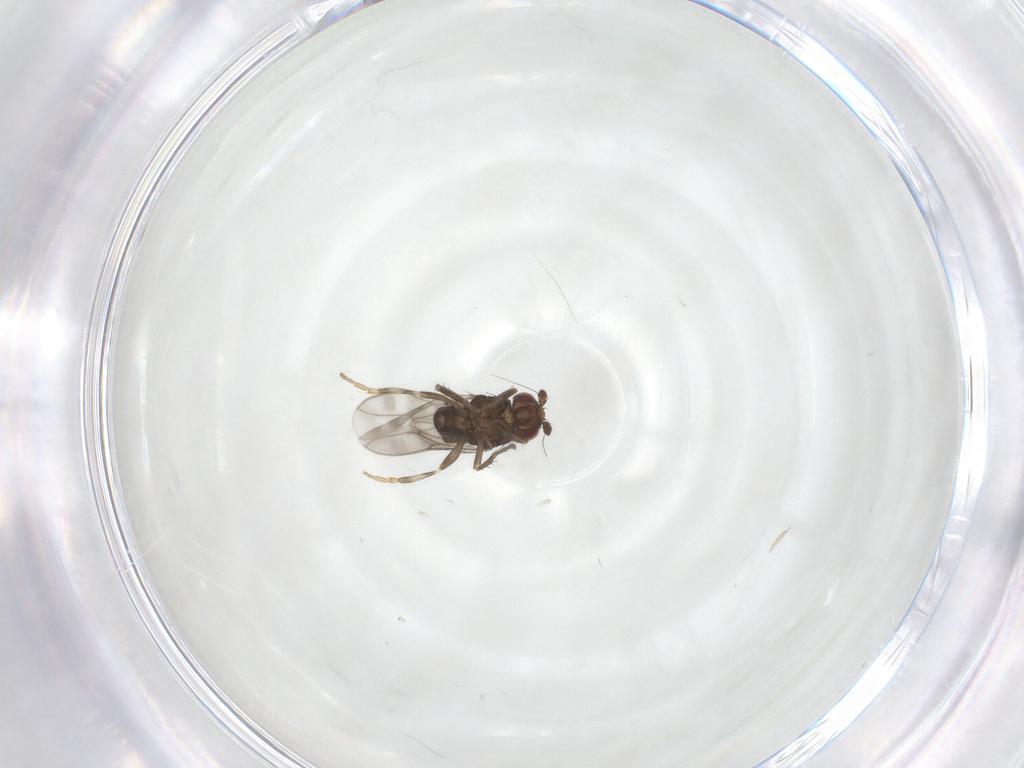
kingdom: Animalia
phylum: Arthropoda
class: Insecta
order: Diptera
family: Sphaeroceridae
